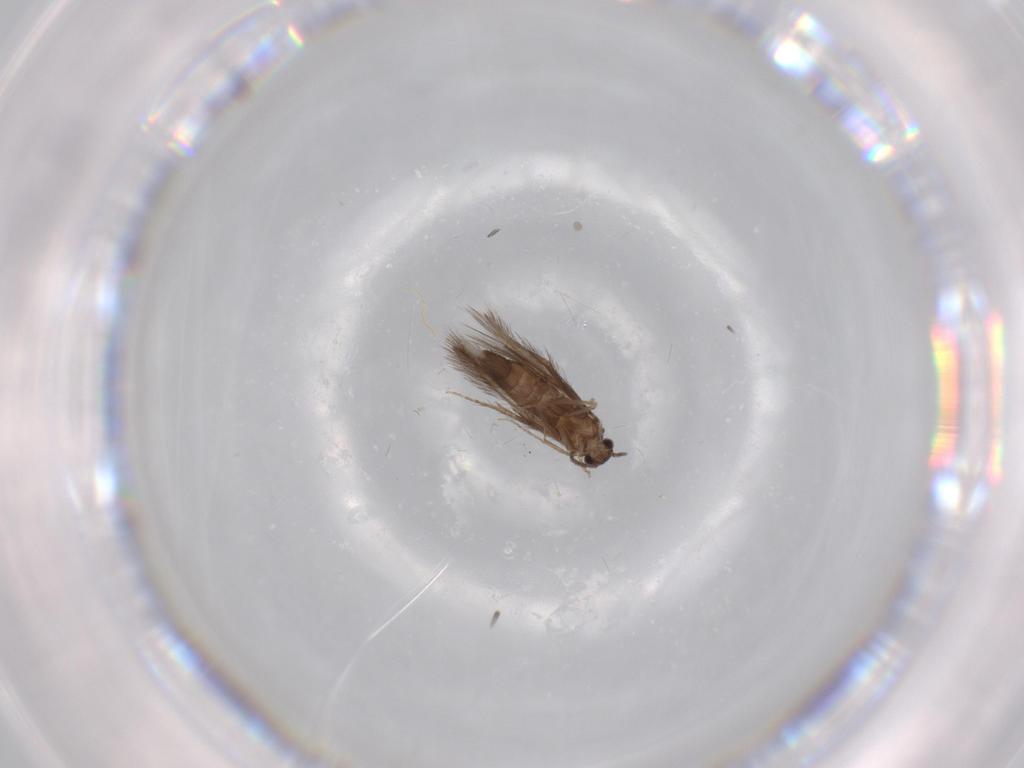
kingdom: Animalia
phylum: Arthropoda
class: Insecta
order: Trichoptera
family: Hydroptilidae
